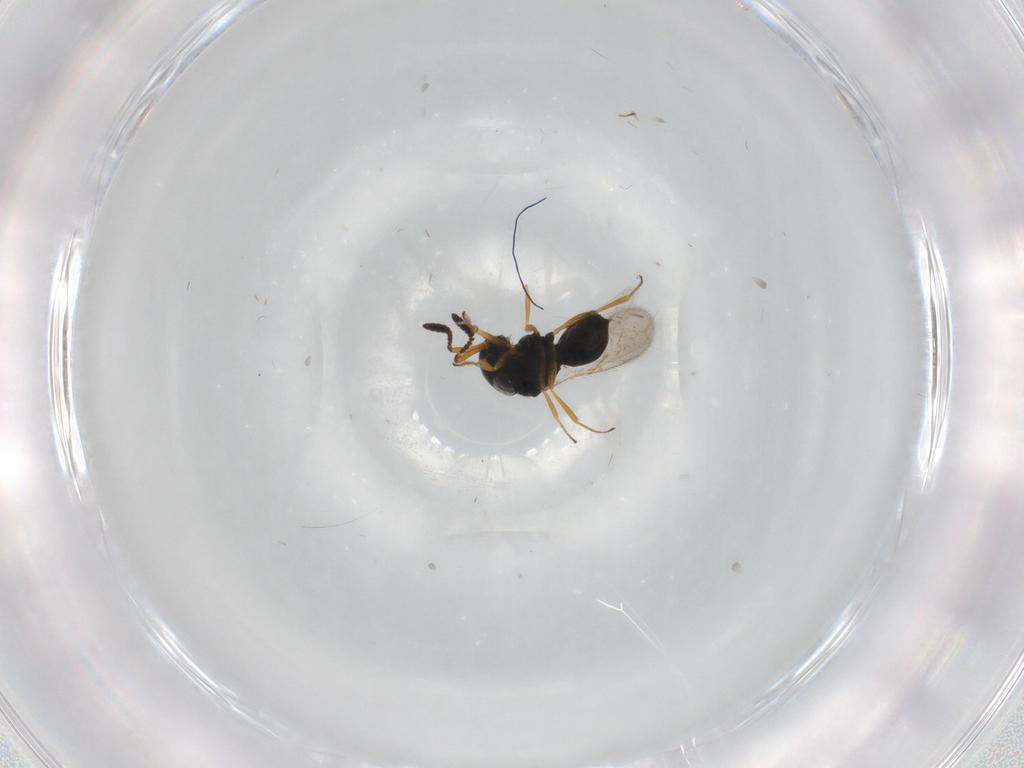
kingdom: Animalia
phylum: Arthropoda
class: Insecta
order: Hymenoptera
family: Scelionidae
